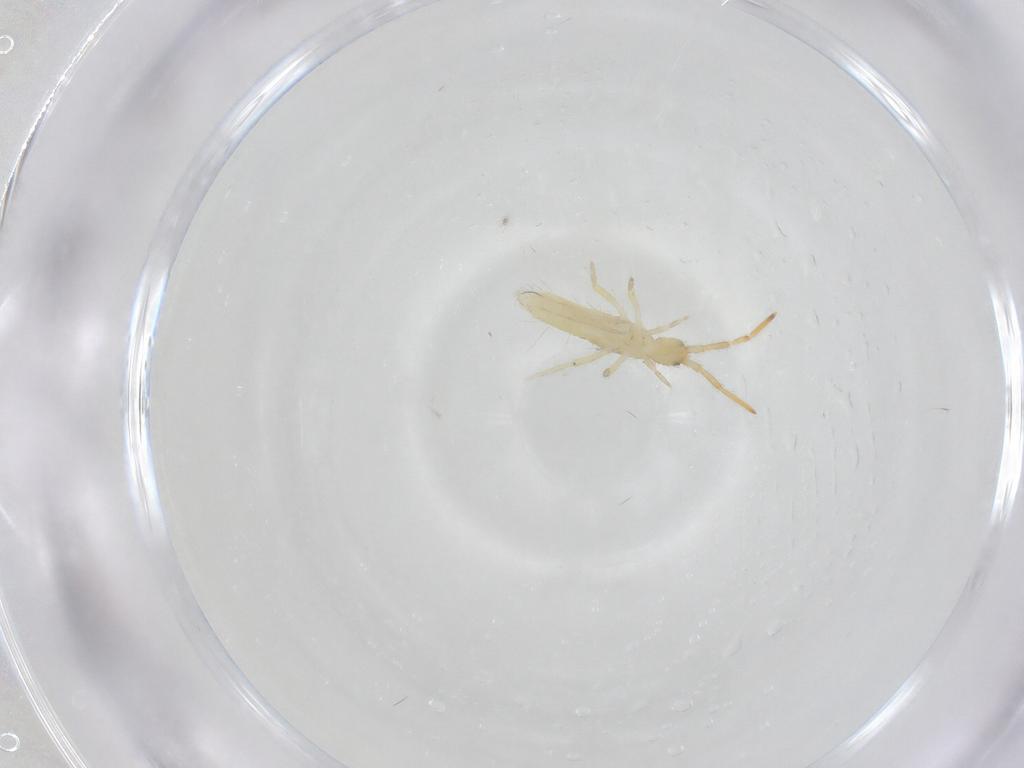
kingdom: Animalia
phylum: Arthropoda
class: Collembola
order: Entomobryomorpha
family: Entomobryidae
